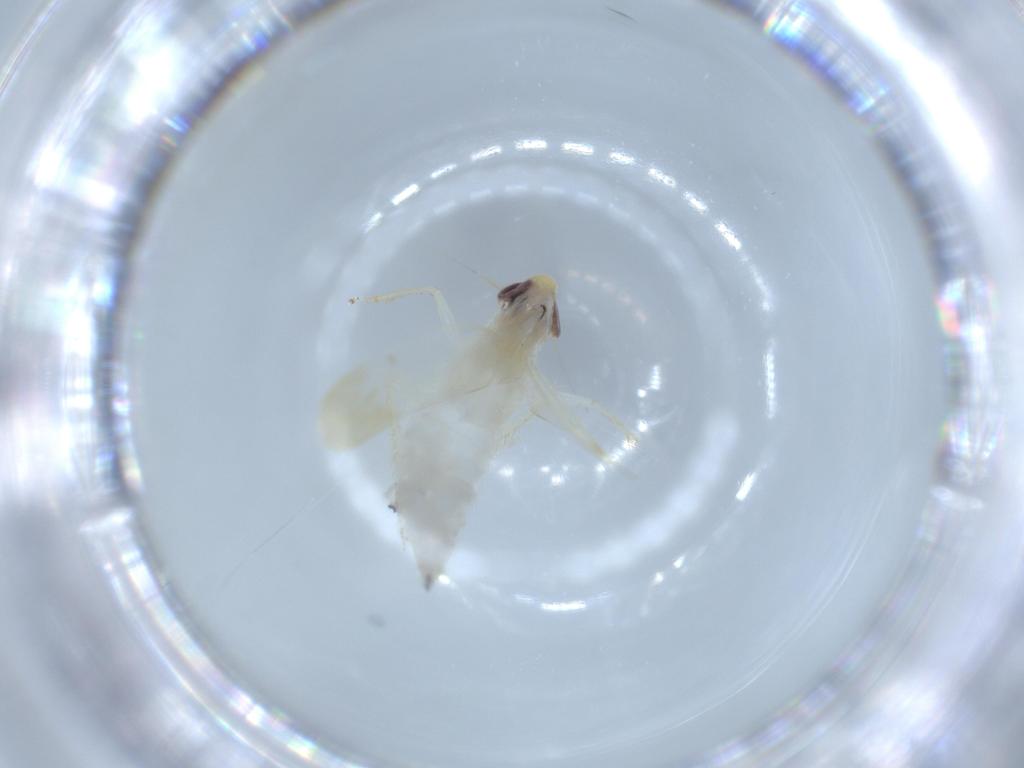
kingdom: Animalia
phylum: Arthropoda
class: Insecta
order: Hemiptera
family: Cicadellidae
